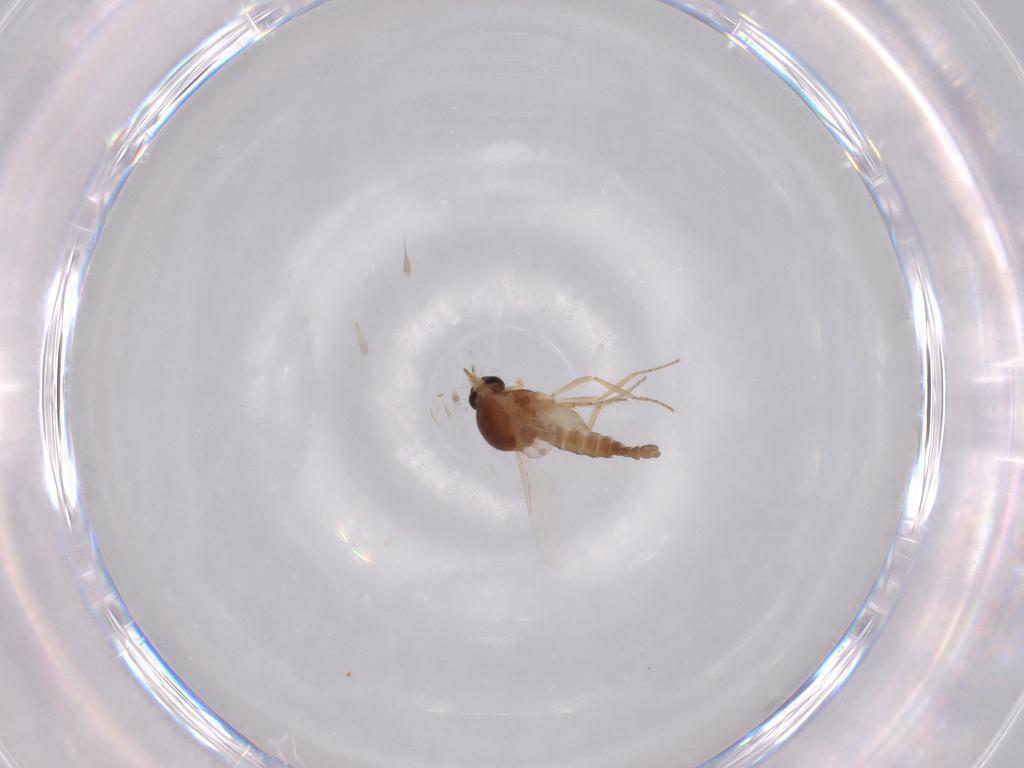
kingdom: Animalia
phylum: Arthropoda
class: Insecta
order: Diptera
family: Ceratopogonidae
